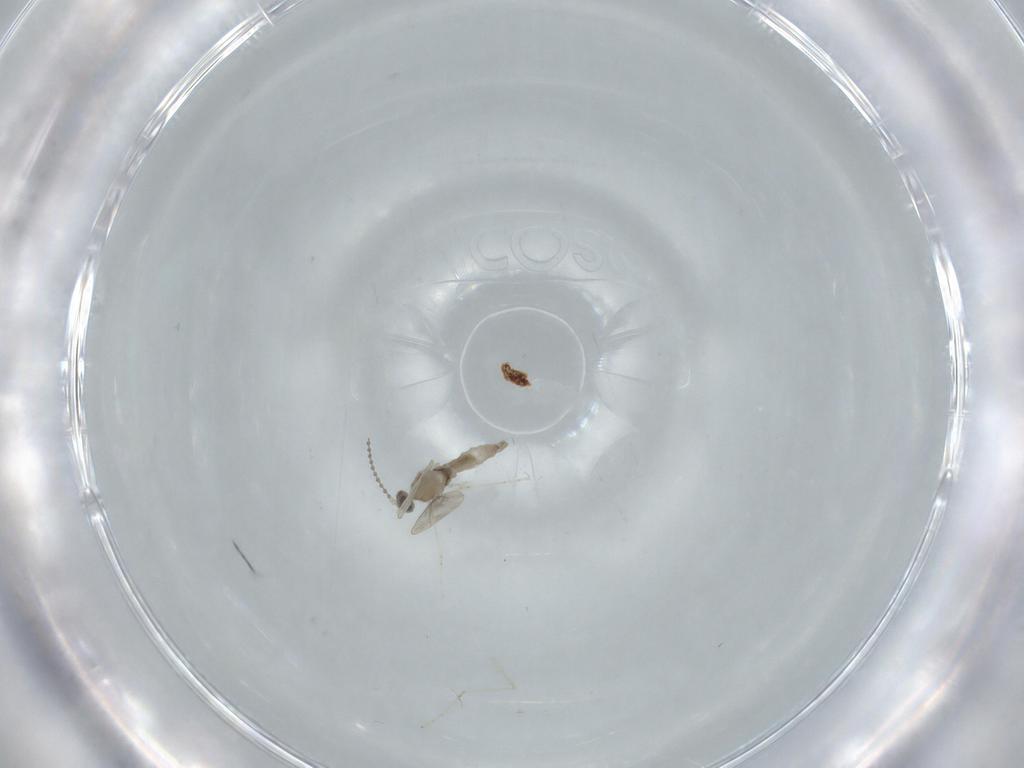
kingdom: Animalia
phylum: Arthropoda
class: Insecta
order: Diptera
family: Cecidomyiidae
